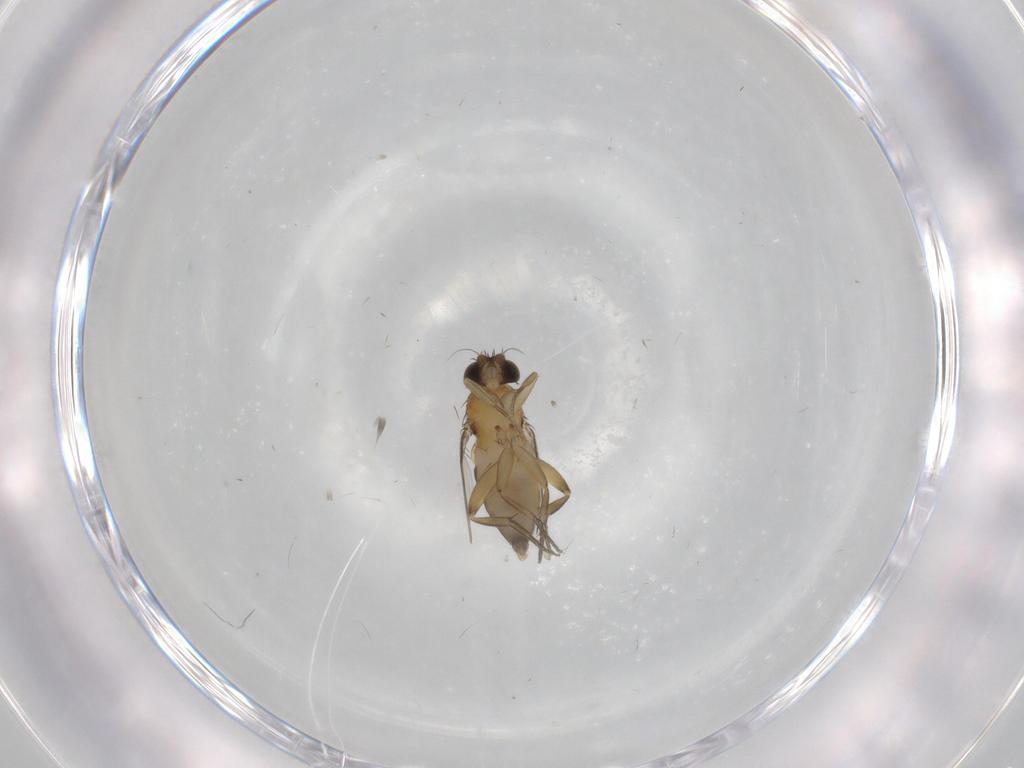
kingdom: Animalia
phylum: Arthropoda
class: Insecta
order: Diptera
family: Phoridae
